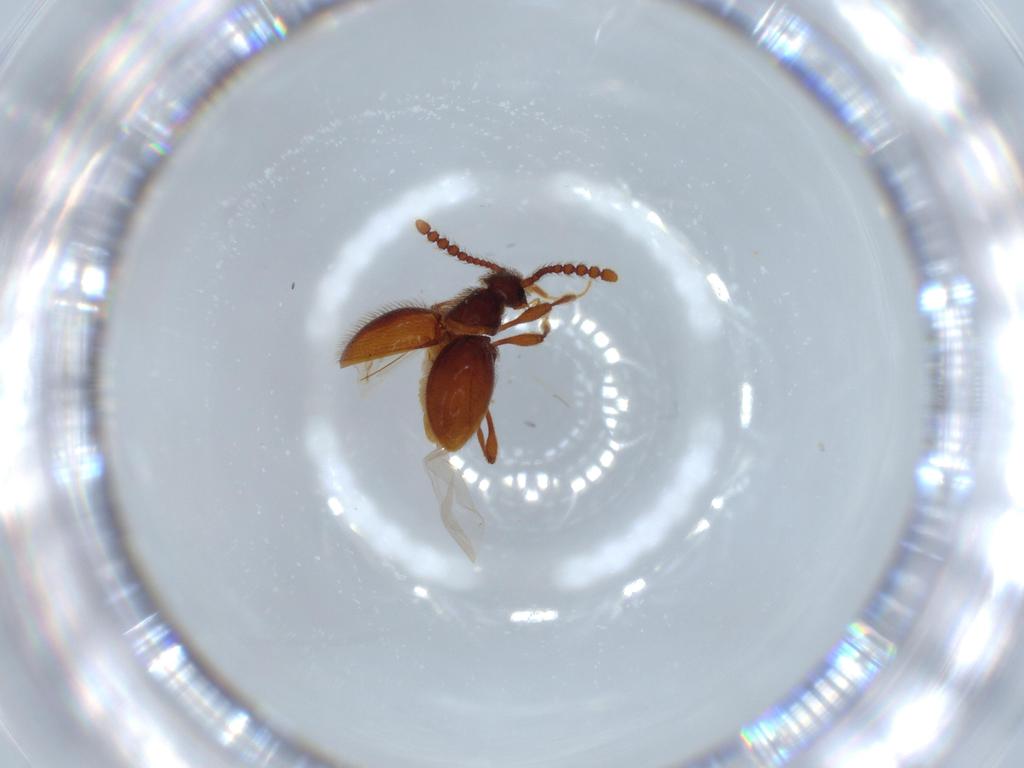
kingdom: Animalia
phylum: Arthropoda
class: Insecta
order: Coleoptera
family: Staphylinidae
